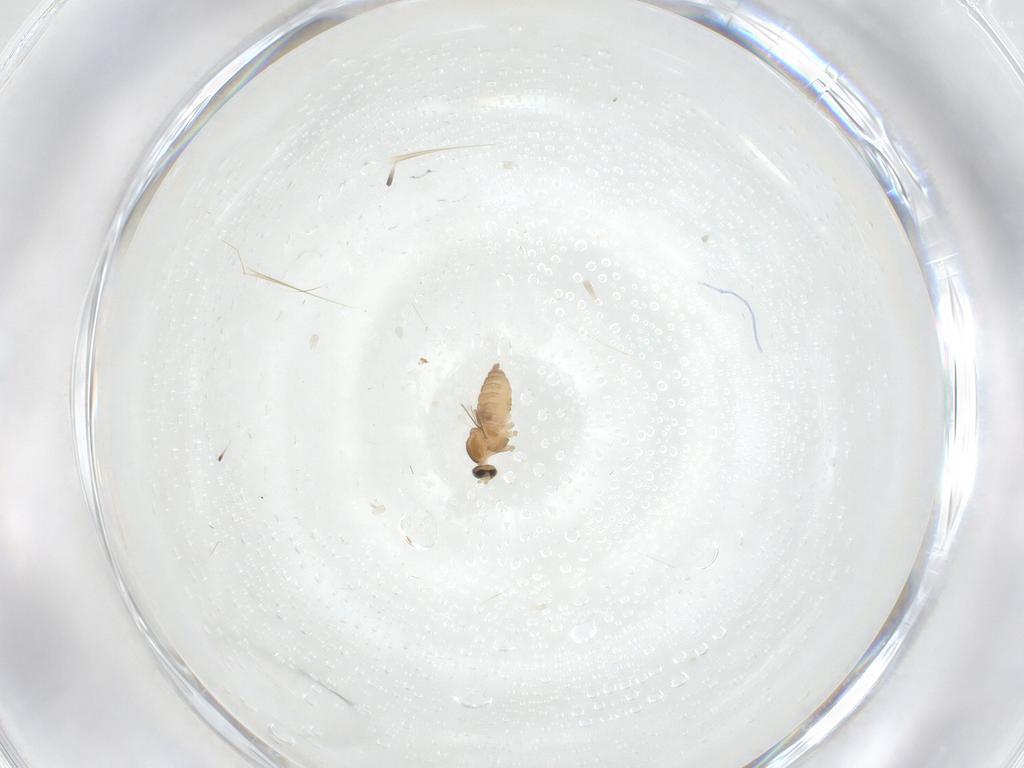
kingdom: Animalia
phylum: Arthropoda
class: Insecta
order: Diptera
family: Cecidomyiidae
